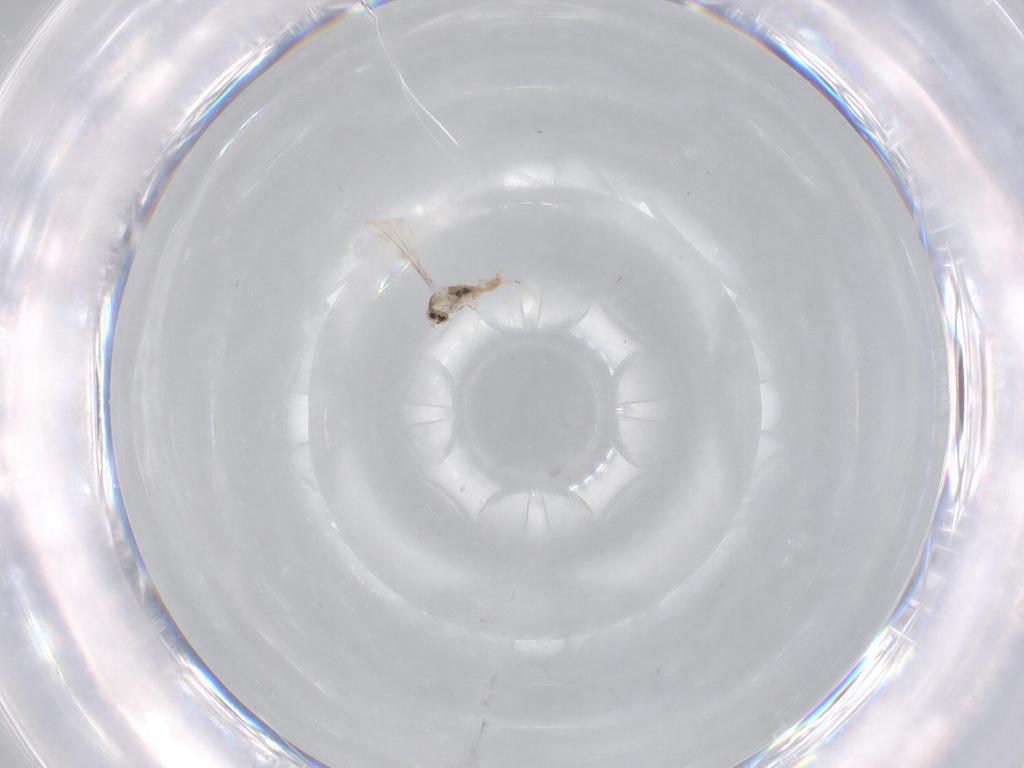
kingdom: Animalia
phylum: Arthropoda
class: Insecta
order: Diptera
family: Cecidomyiidae
